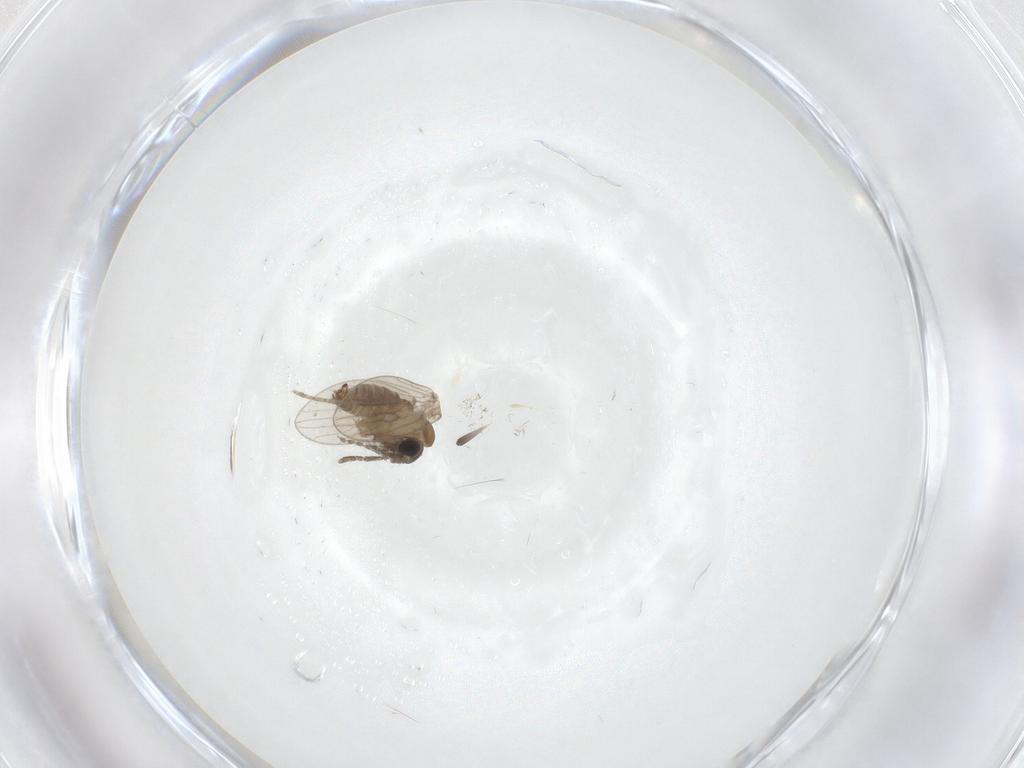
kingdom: Animalia
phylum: Arthropoda
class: Insecta
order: Diptera
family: Psychodidae
